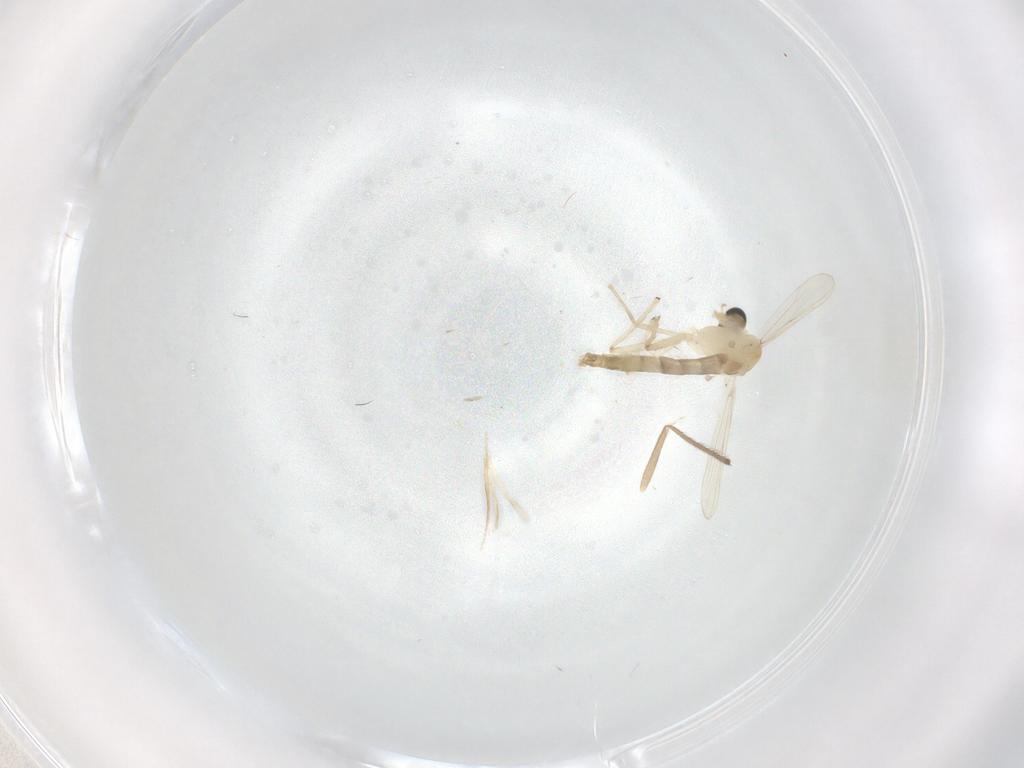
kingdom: Animalia
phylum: Arthropoda
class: Insecta
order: Diptera
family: Chironomidae
